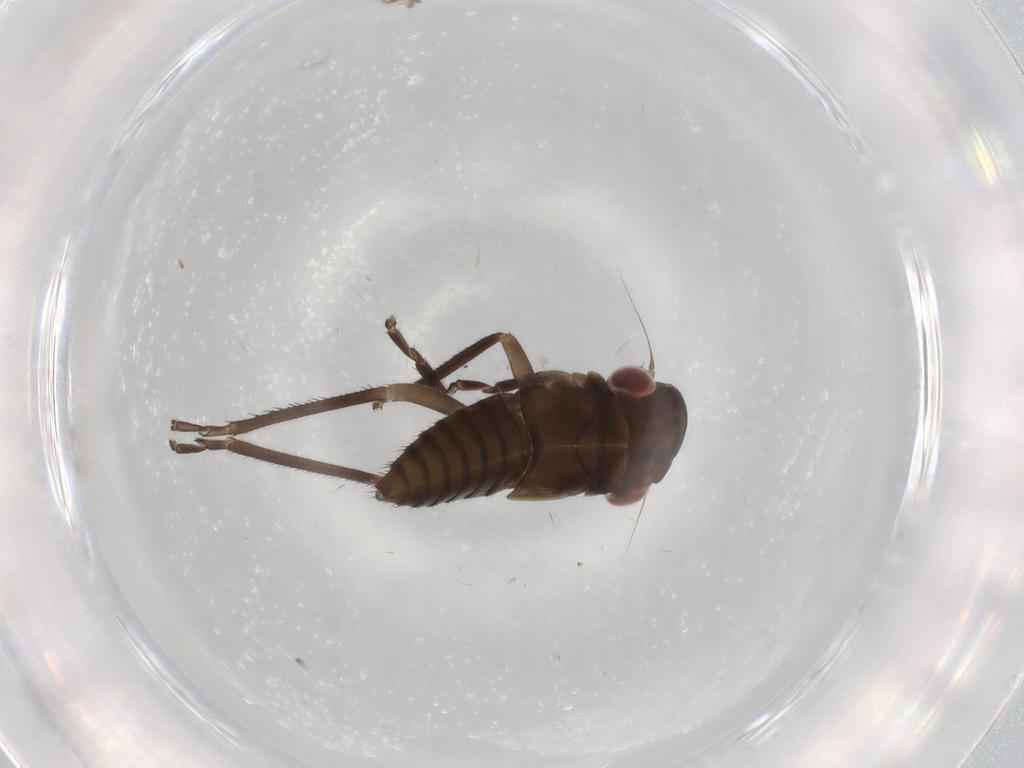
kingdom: Animalia
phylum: Arthropoda
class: Insecta
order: Hemiptera
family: Cicadellidae
